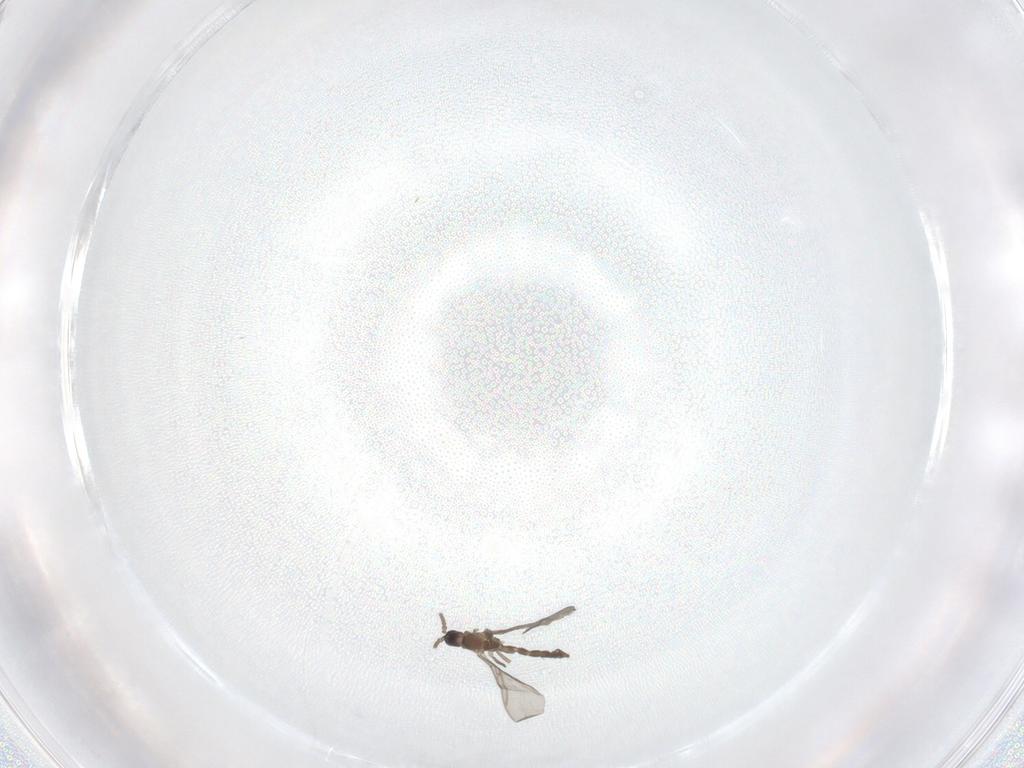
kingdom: Animalia
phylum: Arthropoda
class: Insecta
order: Diptera
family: Sciaridae
